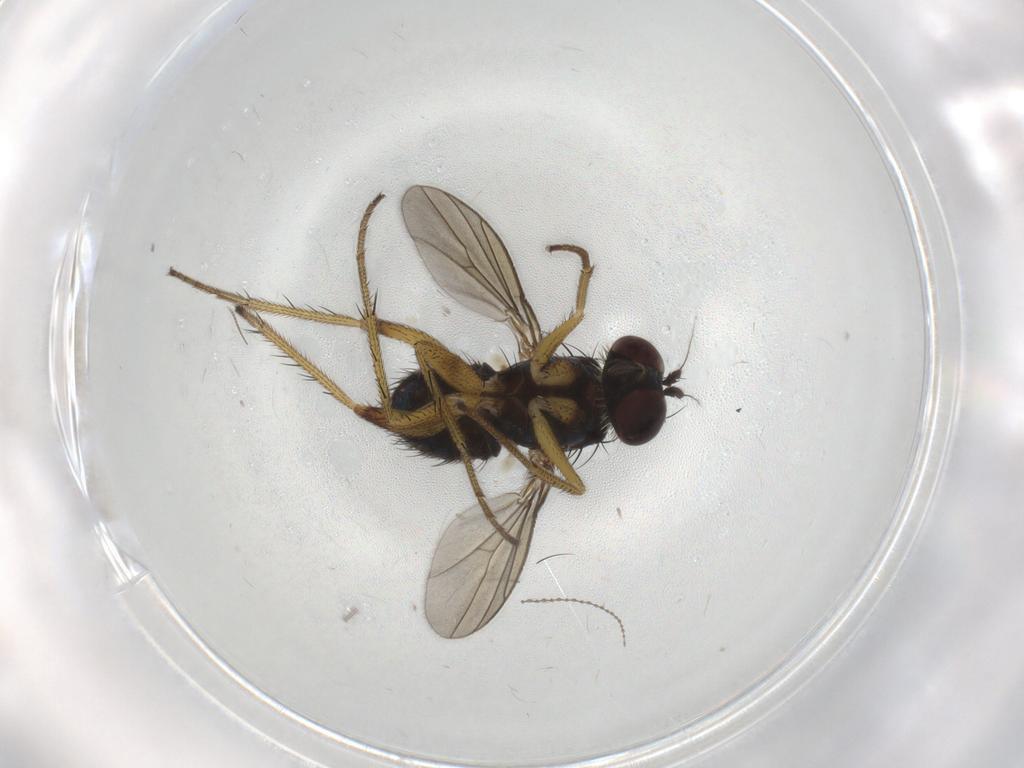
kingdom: Animalia
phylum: Arthropoda
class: Insecta
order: Diptera
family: Dolichopodidae
